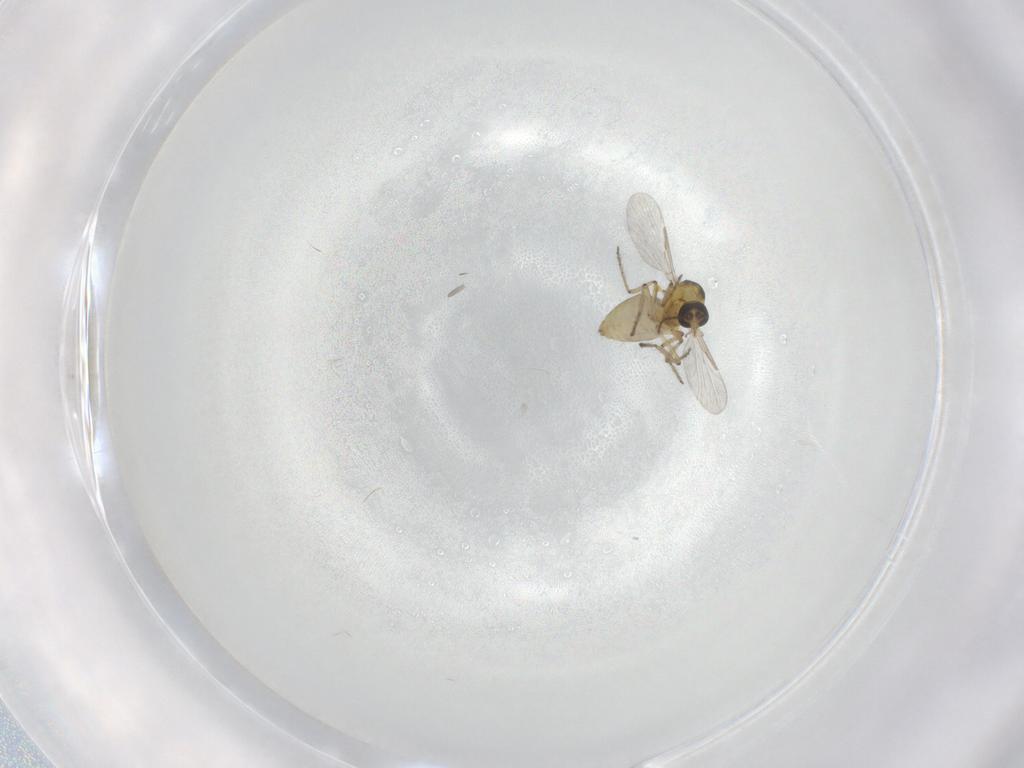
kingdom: Animalia
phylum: Arthropoda
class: Insecta
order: Diptera
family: Ceratopogonidae
